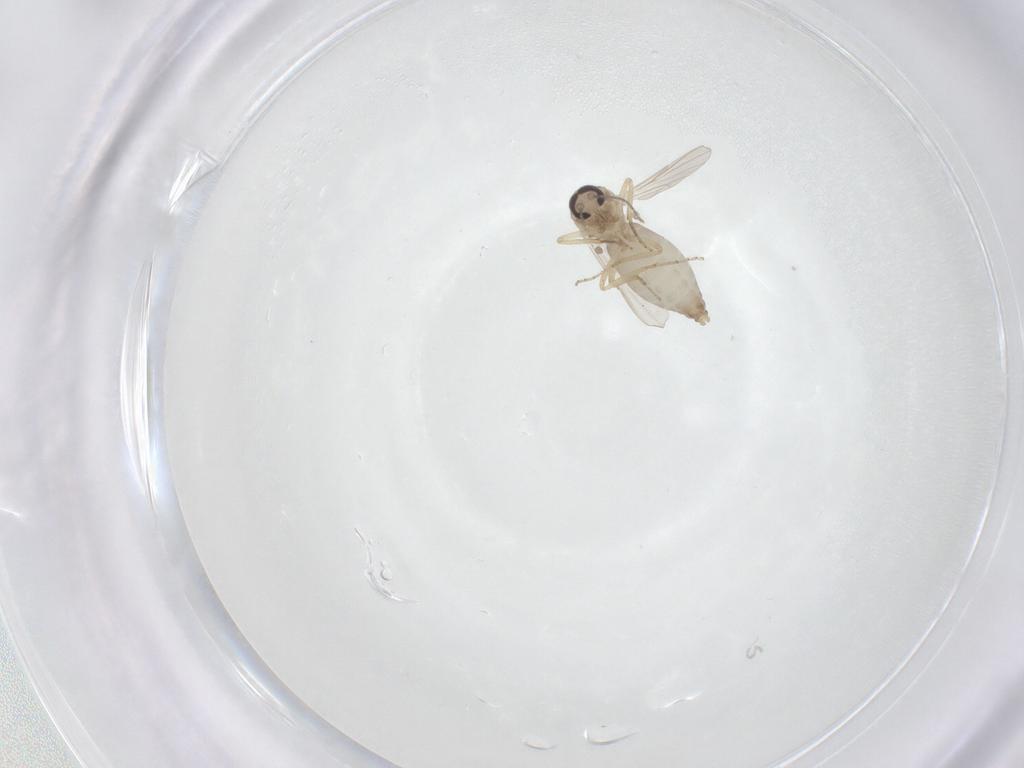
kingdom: Animalia
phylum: Arthropoda
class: Insecta
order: Diptera
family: Ceratopogonidae
